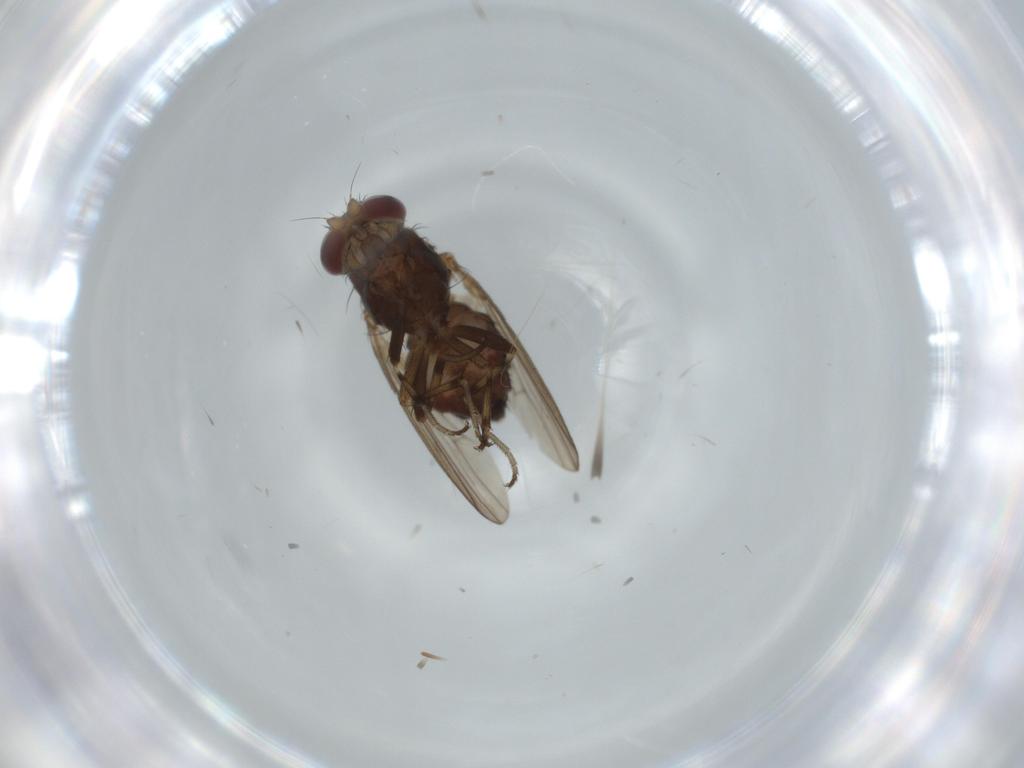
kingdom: Animalia
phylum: Arthropoda
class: Insecta
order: Diptera
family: Heleomyzidae
